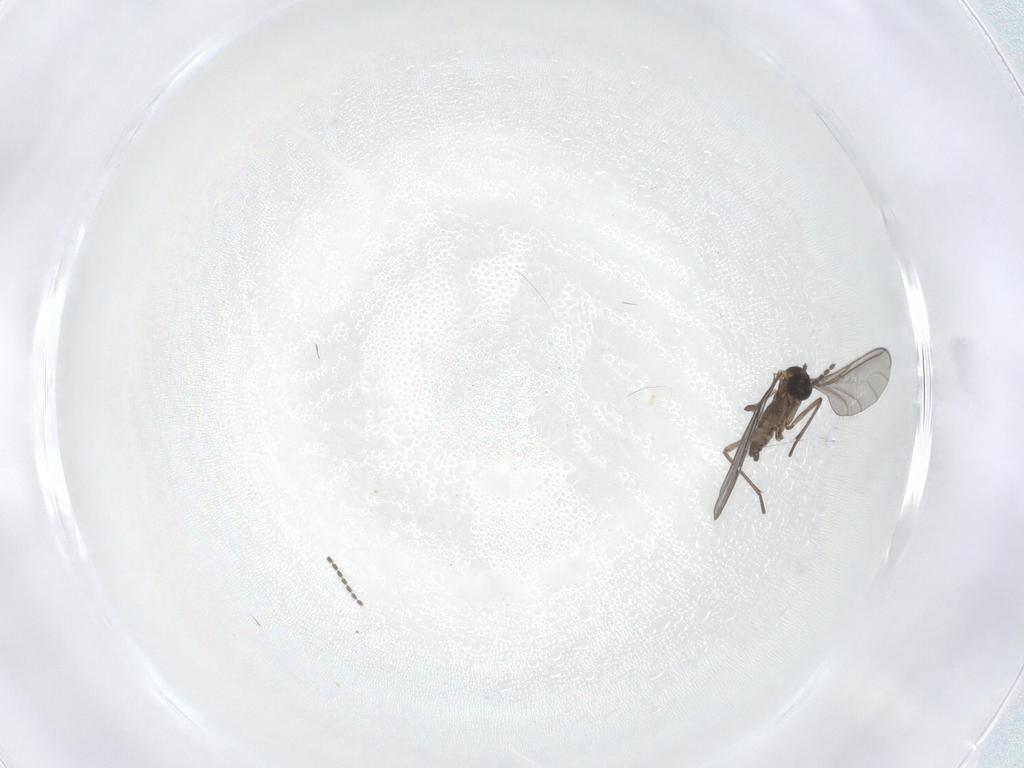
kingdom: Animalia
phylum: Arthropoda
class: Insecta
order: Diptera
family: Sciaridae
